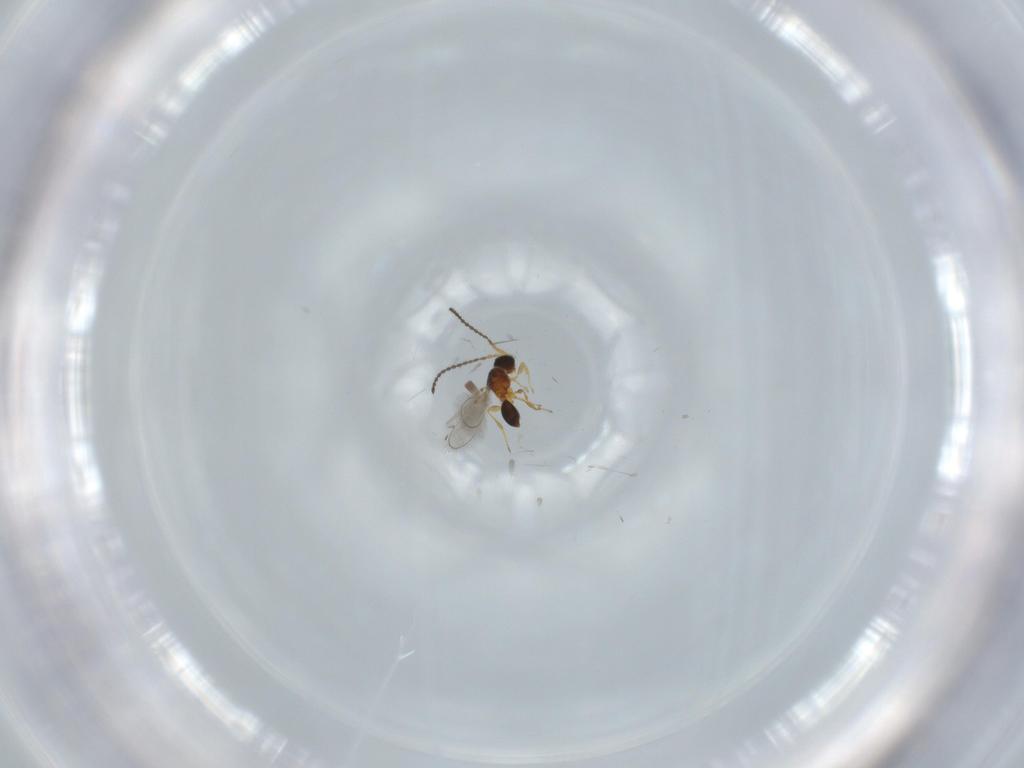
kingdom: Animalia
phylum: Arthropoda
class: Insecta
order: Hymenoptera
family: Diapriidae
